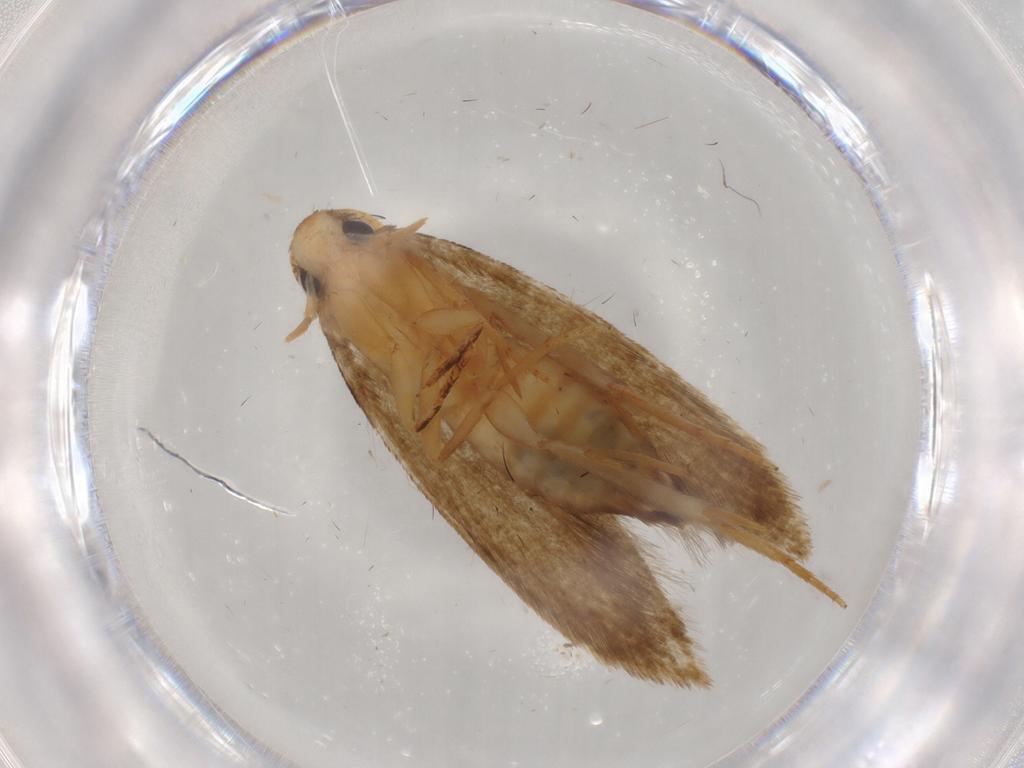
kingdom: Animalia
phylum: Arthropoda
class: Insecta
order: Lepidoptera
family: Tineidae
